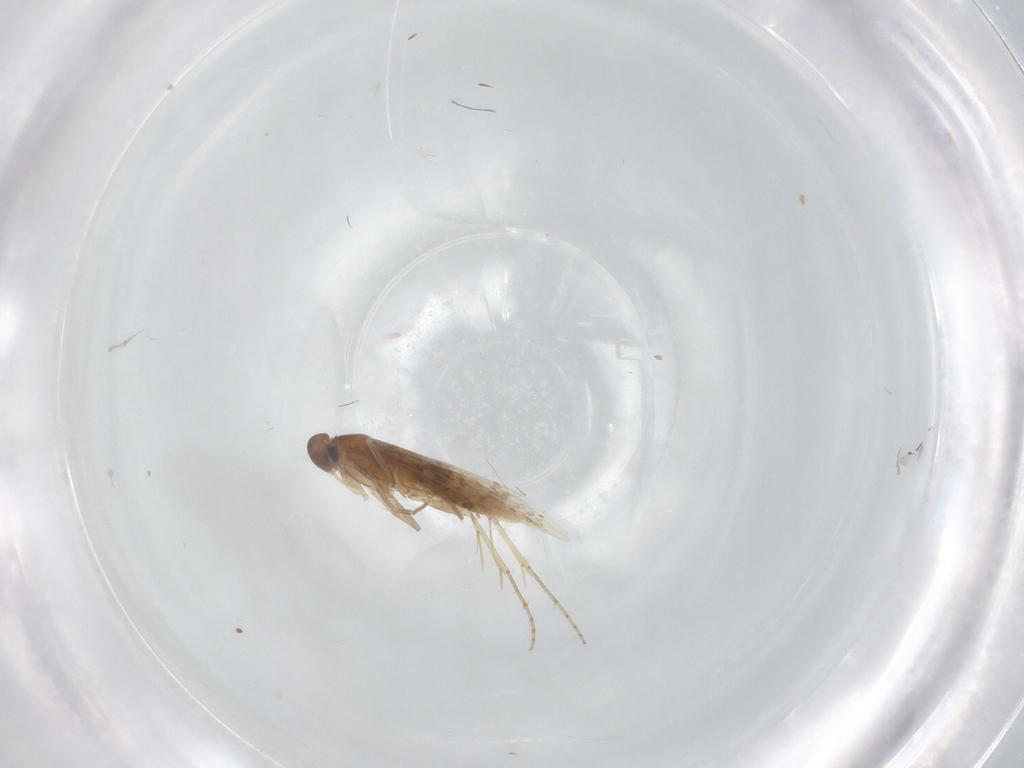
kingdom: Animalia
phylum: Arthropoda
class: Insecta
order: Lepidoptera
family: Elachistidae
